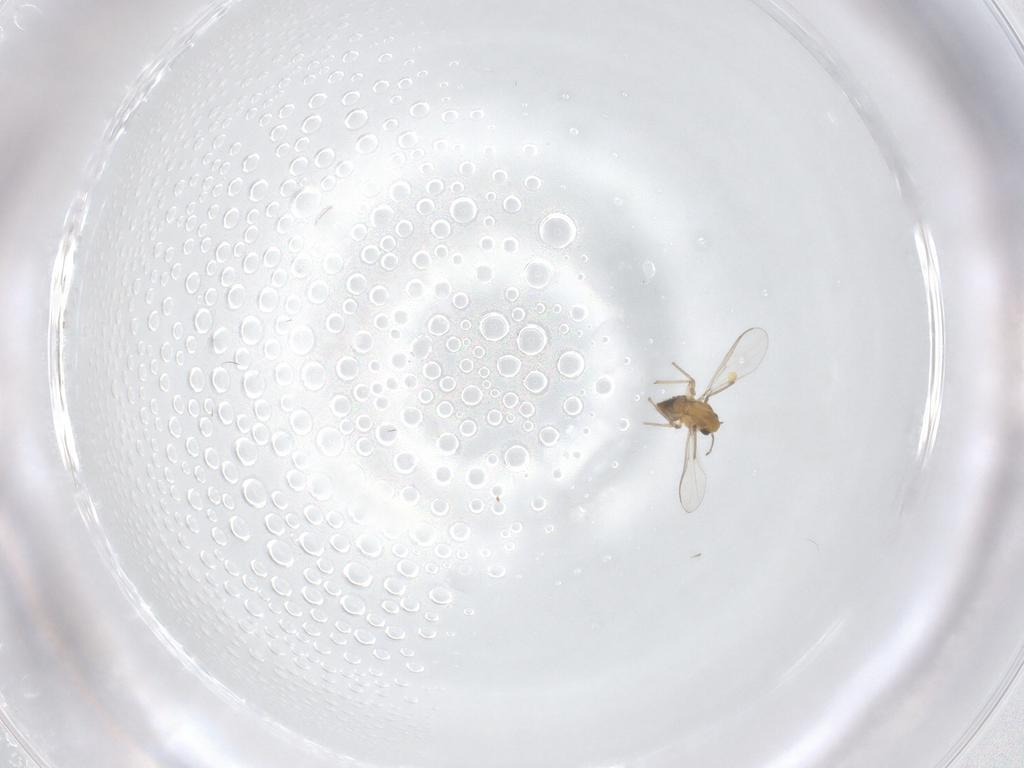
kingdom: Animalia
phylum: Arthropoda
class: Insecta
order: Diptera
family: Chironomidae
